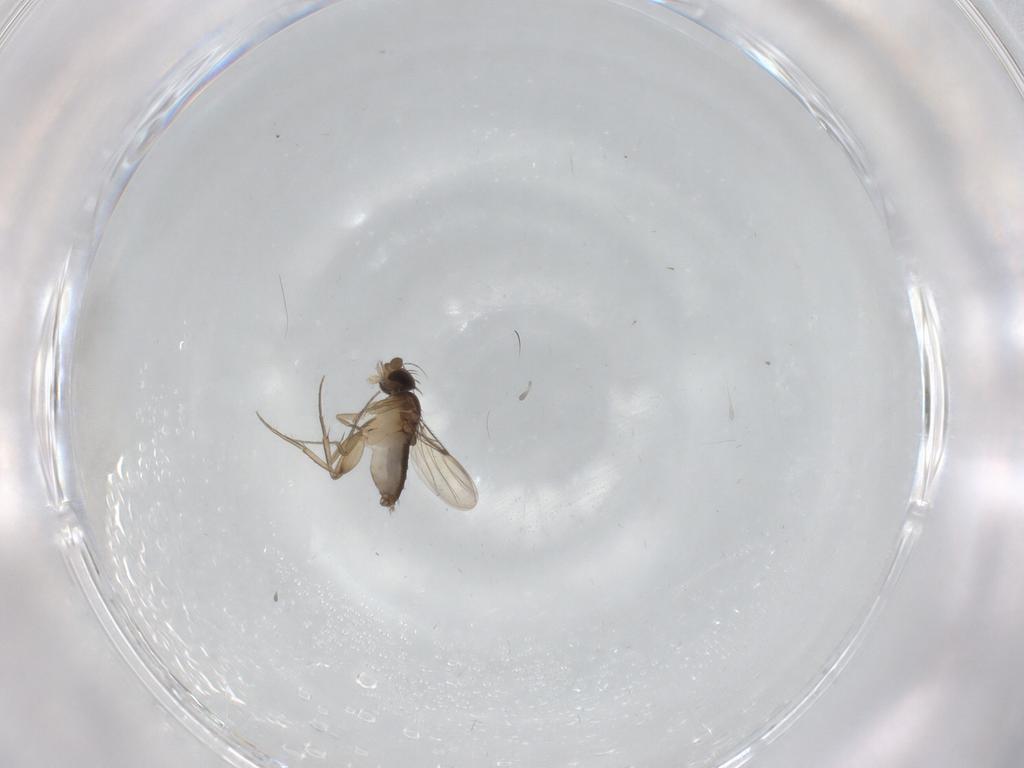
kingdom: Animalia
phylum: Arthropoda
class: Insecta
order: Diptera
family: Phoridae
